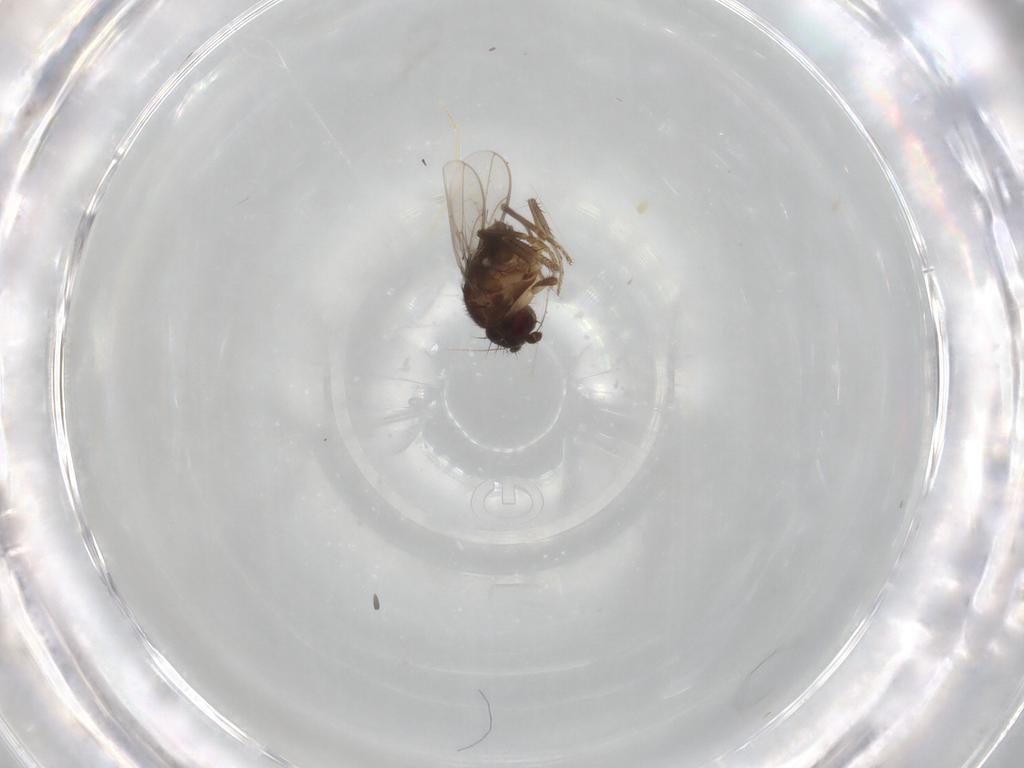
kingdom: Animalia
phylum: Arthropoda
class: Insecta
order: Diptera
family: Sphaeroceridae
